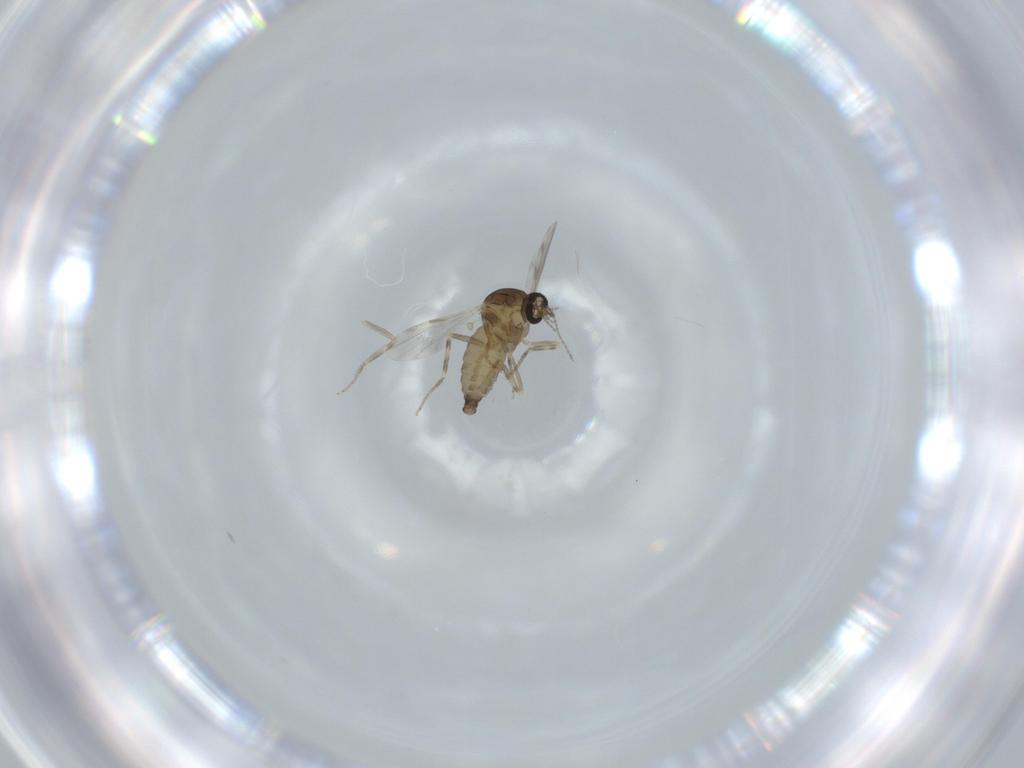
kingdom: Animalia
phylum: Arthropoda
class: Insecta
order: Diptera
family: Ceratopogonidae
